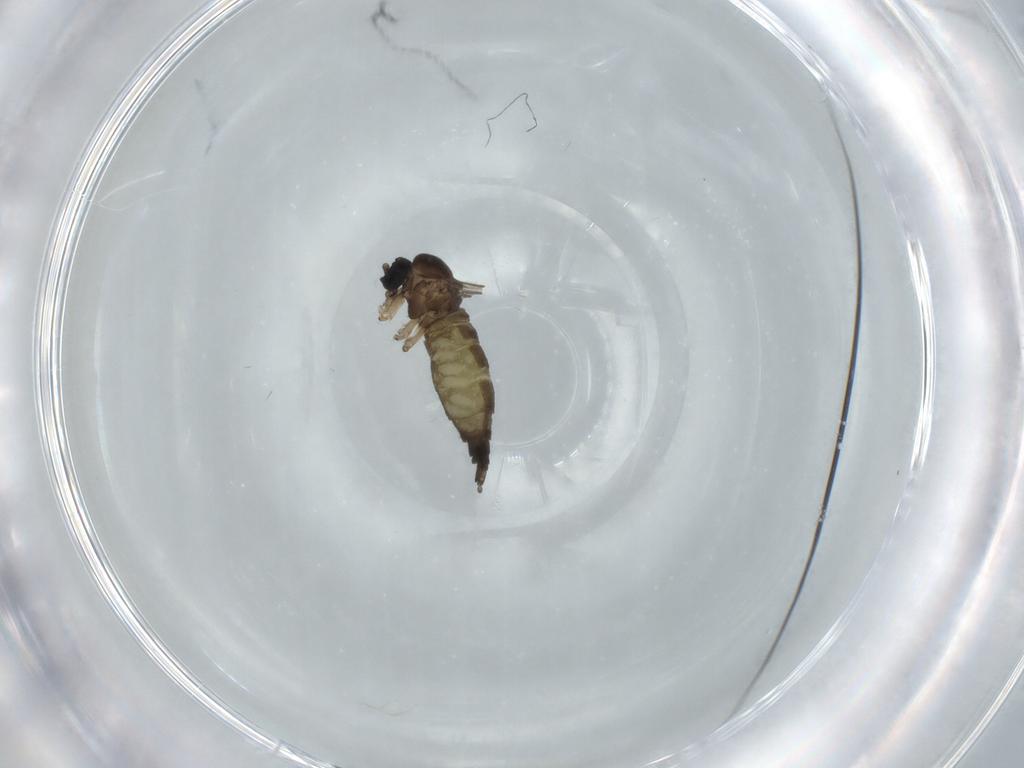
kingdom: Animalia
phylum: Arthropoda
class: Insecta
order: Diptera
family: Sciaridae
